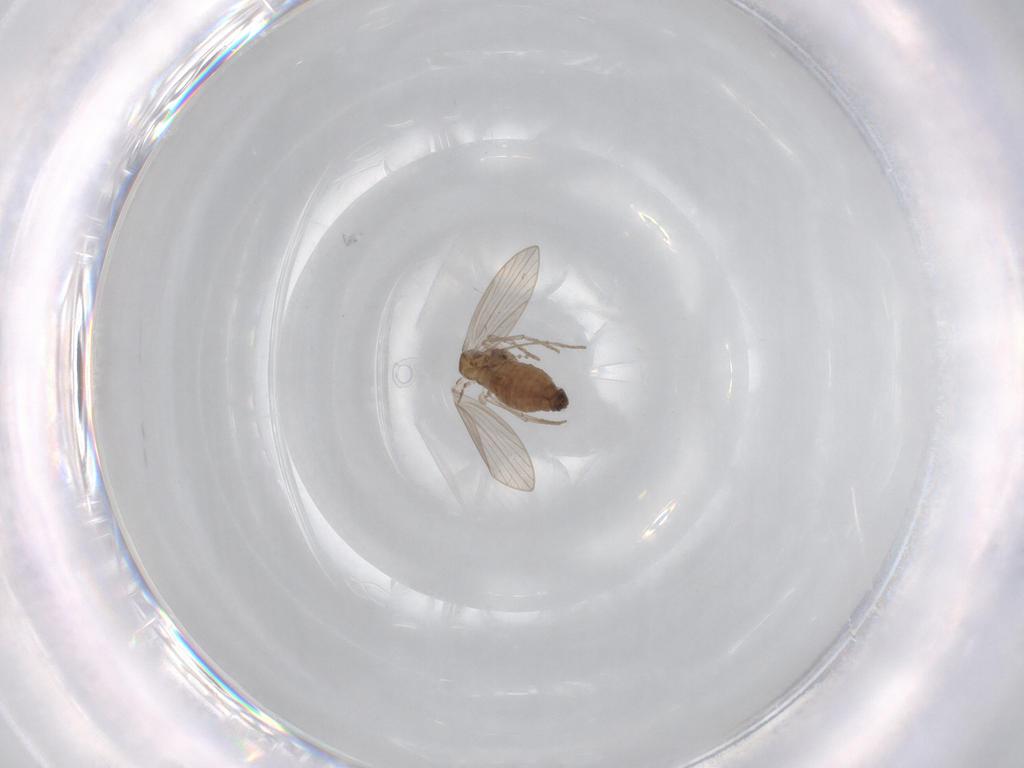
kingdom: Animalia
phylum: Arthropoda
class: Insecta
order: Diptera
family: Psychodidae
